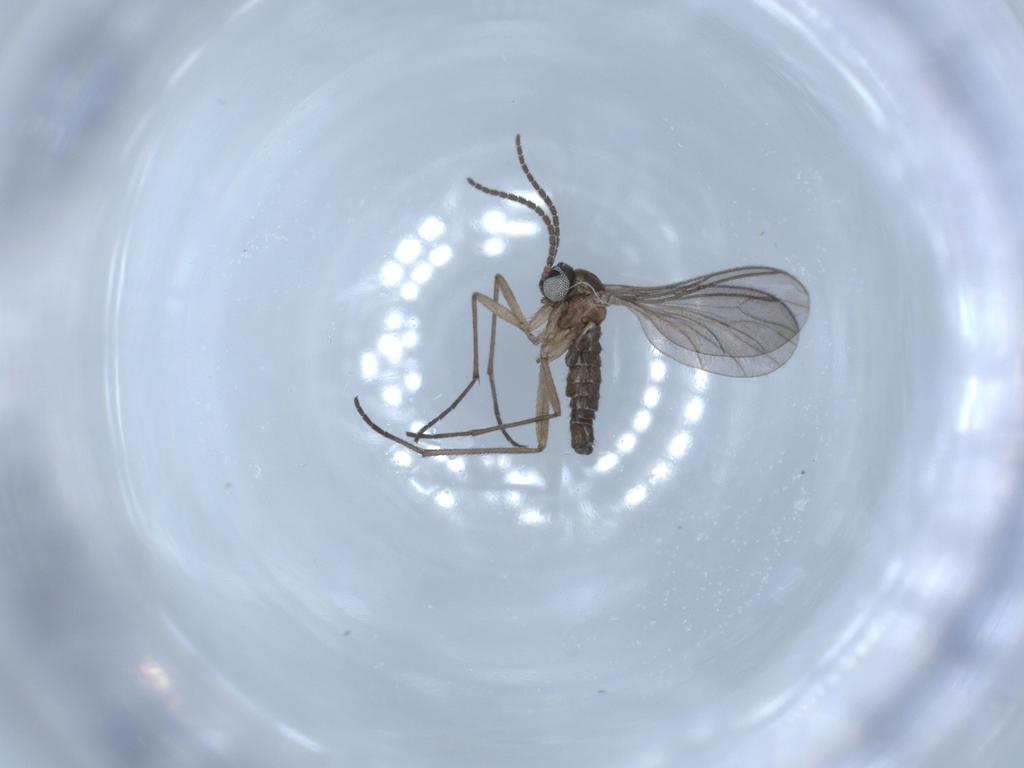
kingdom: Animalia
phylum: Arthropoda
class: Insecta
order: Diptera
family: Sciaridae
